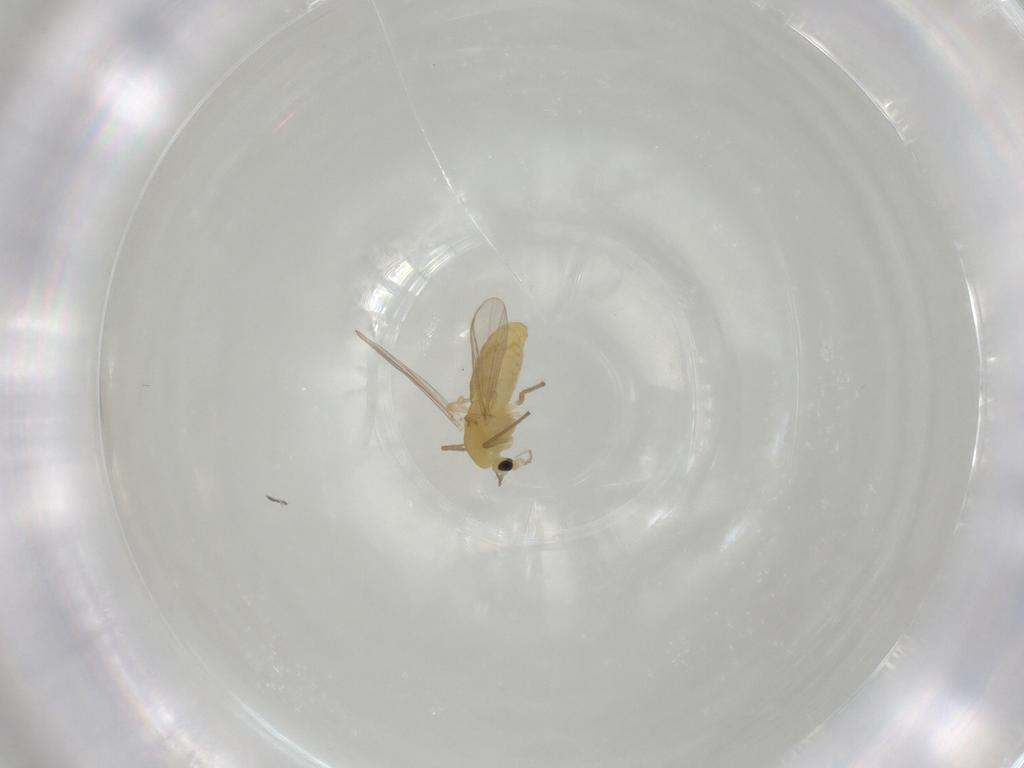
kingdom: Animalia
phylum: Arthropoda
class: Insecta
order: Diptera
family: Chironomidae
